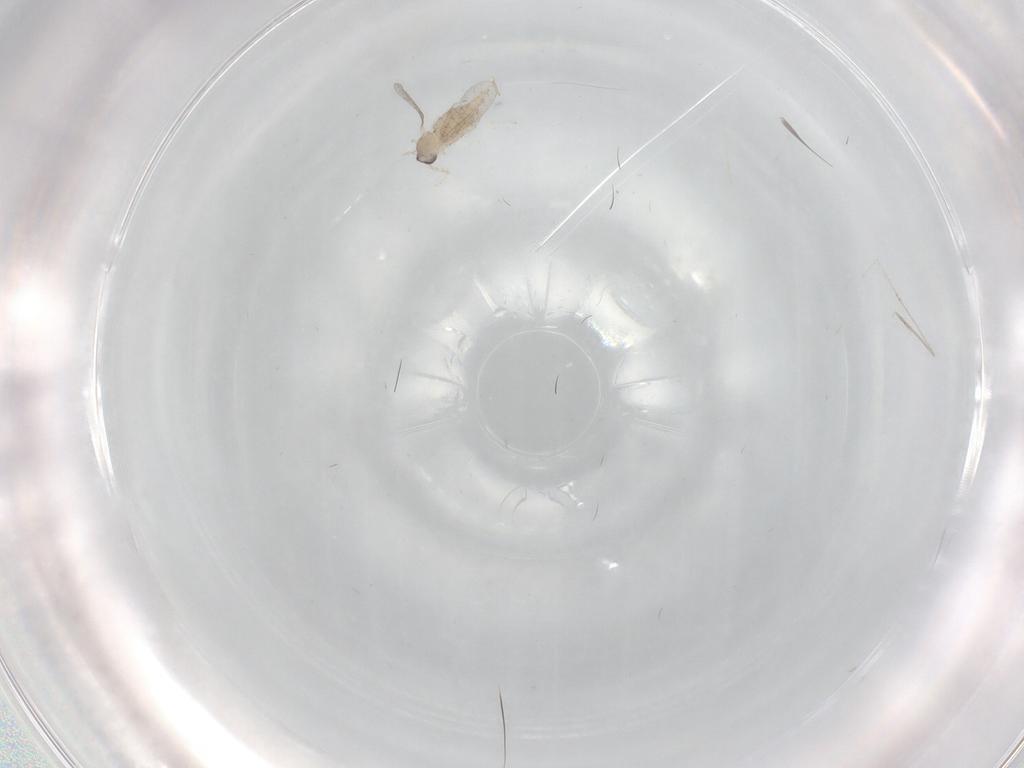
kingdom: Animalia
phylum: Arthropoda
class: Insecta
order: Diptera
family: Cecidomyiidae
